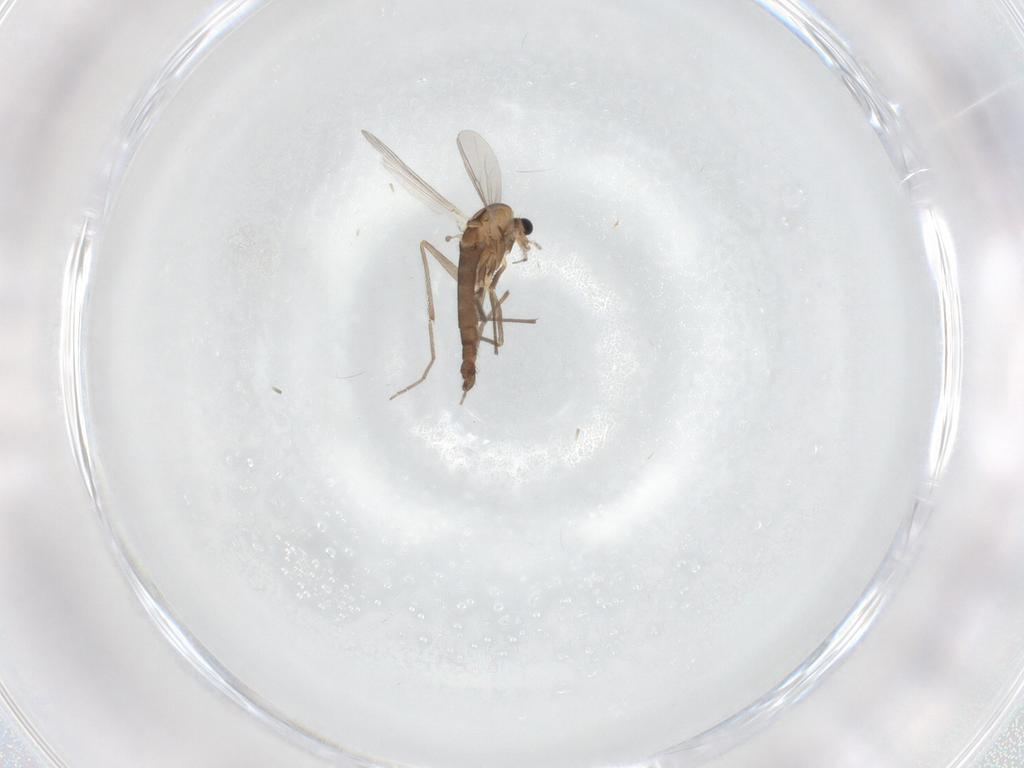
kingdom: Animalia
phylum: Arthropoda
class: Insecta
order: Diptera
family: Chironomidae
